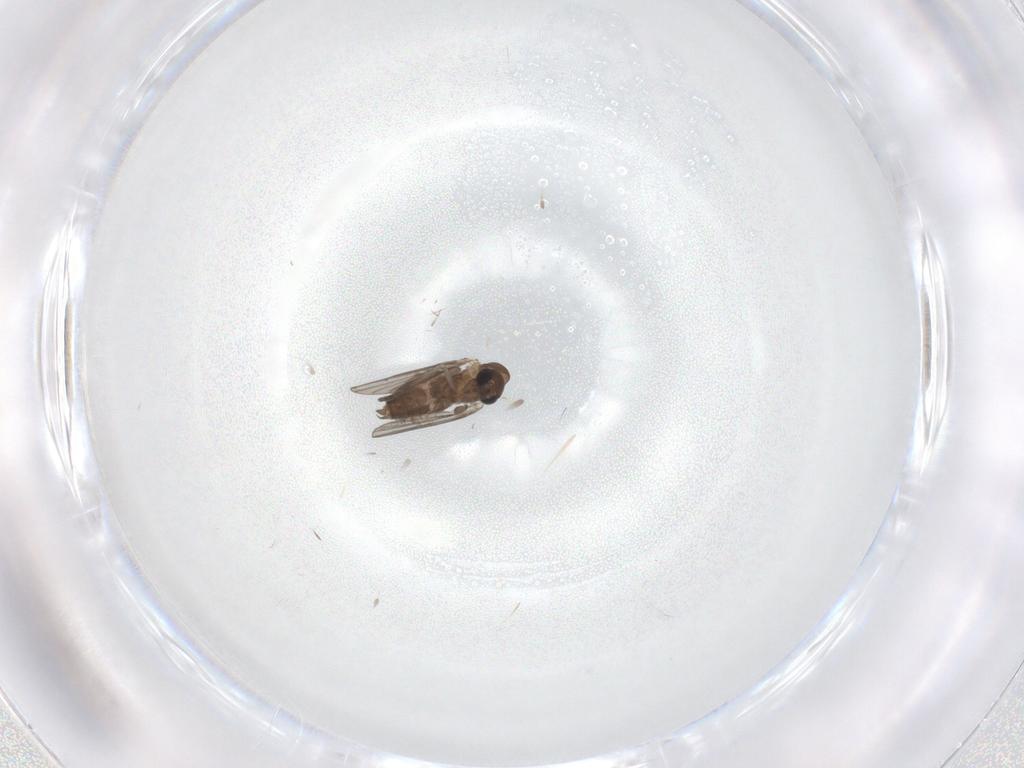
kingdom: Animalia
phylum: Arthropoda
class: Insecta
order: Diptera
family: Psychodidae
